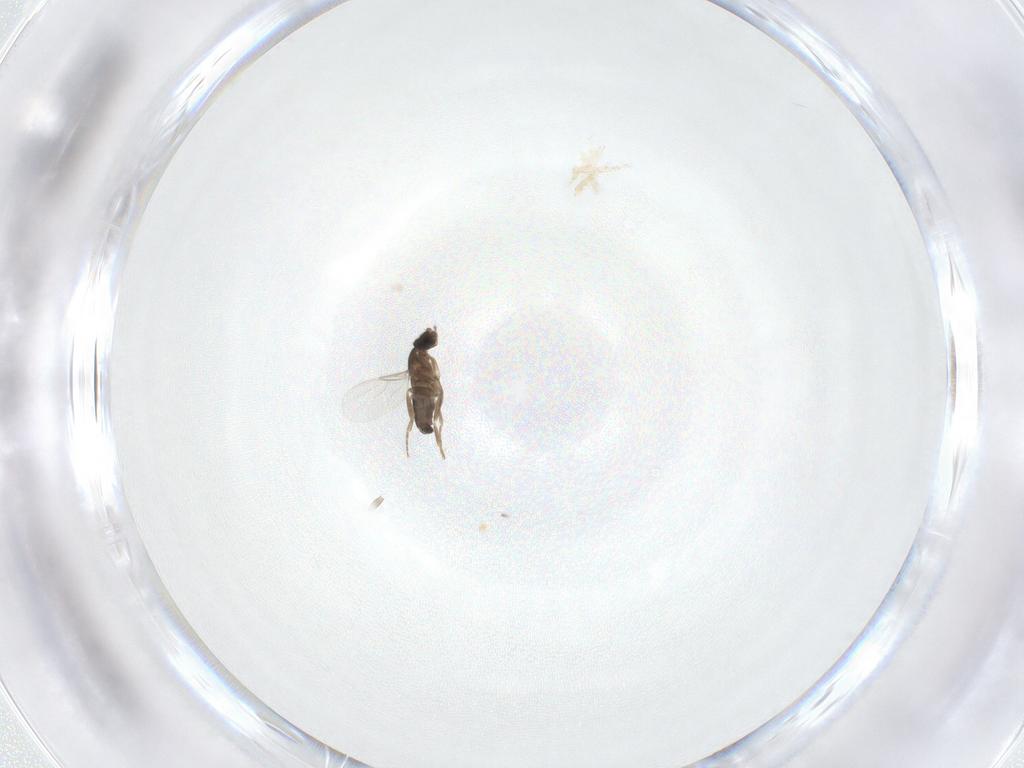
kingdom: Animalia
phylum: Arthropoda
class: Insecta
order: Diptera
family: Phoridae
